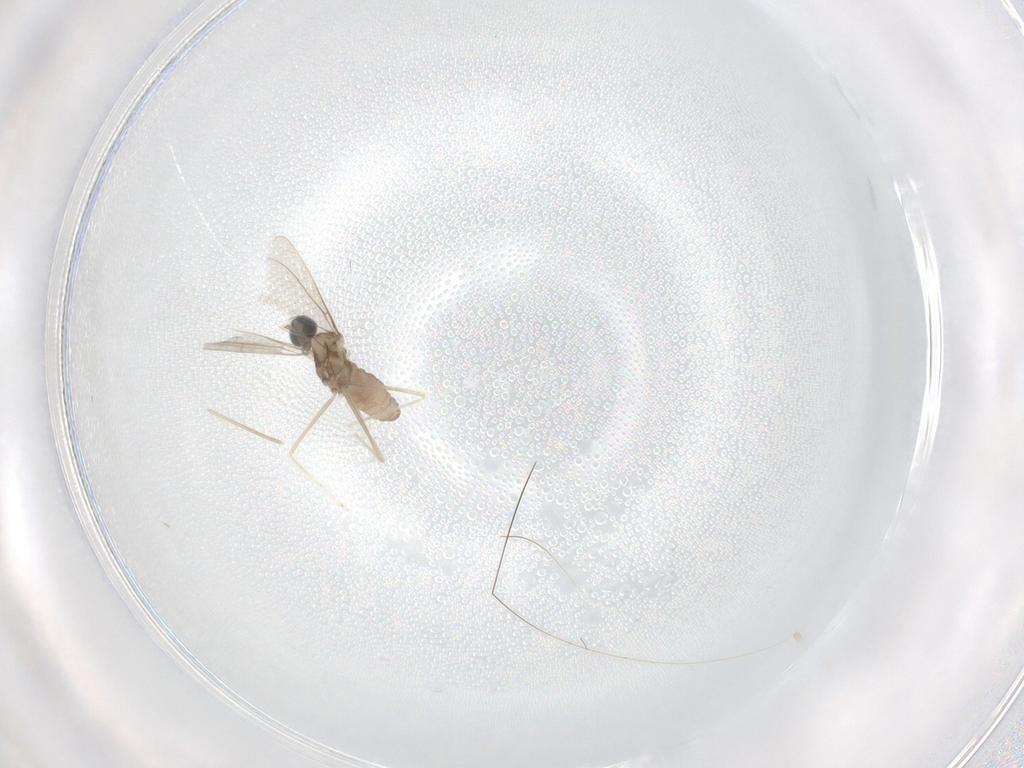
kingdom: Animalia
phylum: Arthropoda
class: Insecta
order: Diptera
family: Cecidomyiidae
